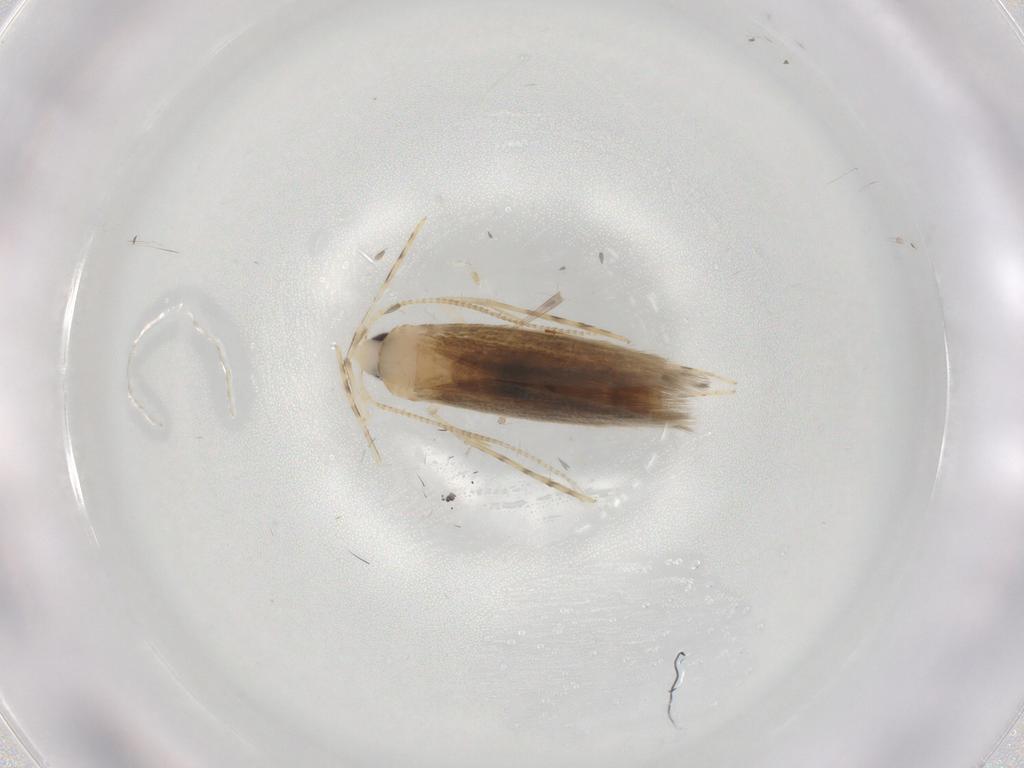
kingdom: Animalia
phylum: Arthropoda
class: Insecta
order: Lepidoptera
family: Gracillariidae
